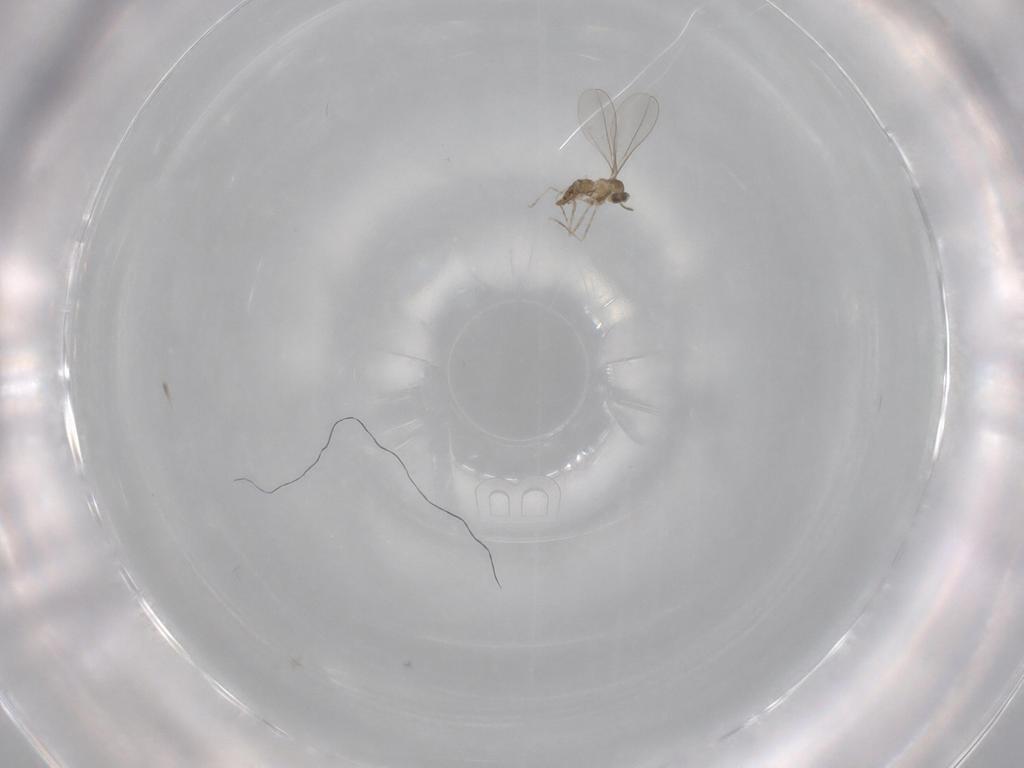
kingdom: Animalia
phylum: Arthropoda
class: Insecta
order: Diptera
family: Cecidomyiidae
